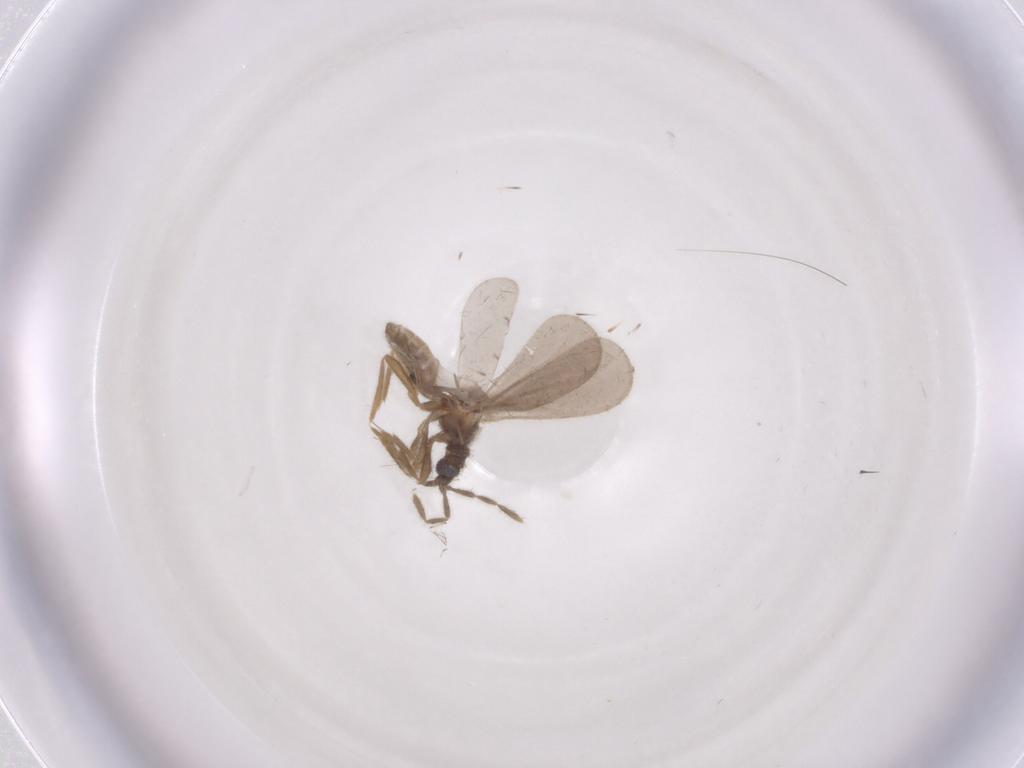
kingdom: Animalia
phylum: Arthropoda
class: Insecta
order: Hemiptera
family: Enicocephalidae
